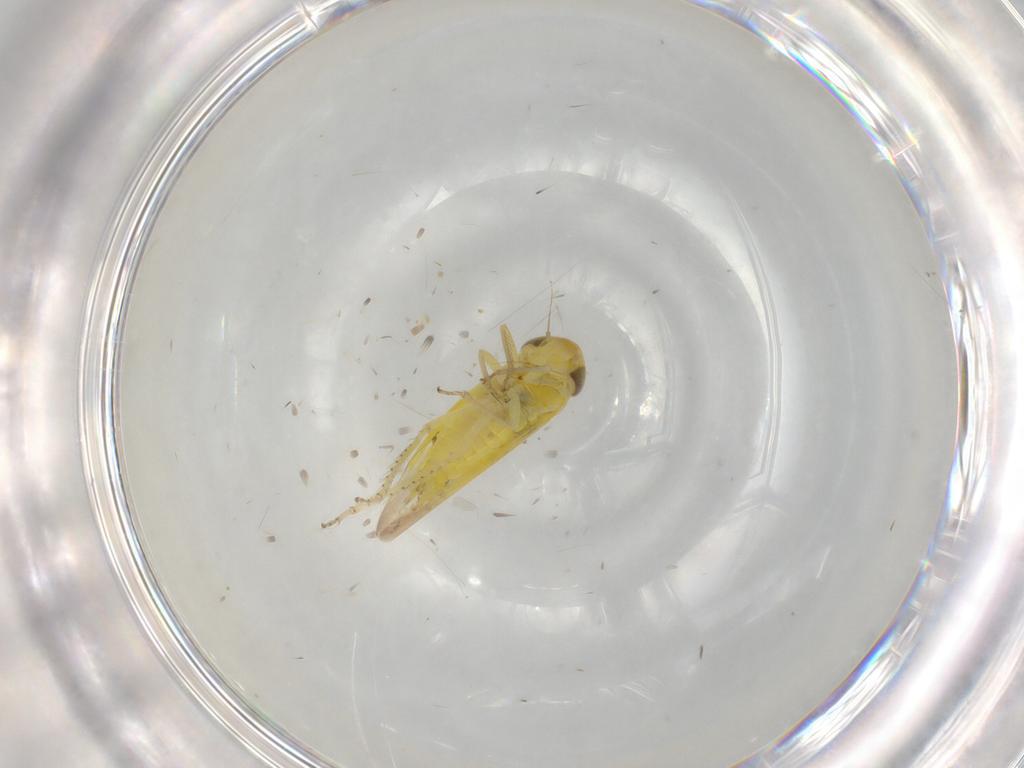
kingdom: Animalia
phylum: Arthropoda
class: Insecta
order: Hemiptera
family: Cicadellidae
